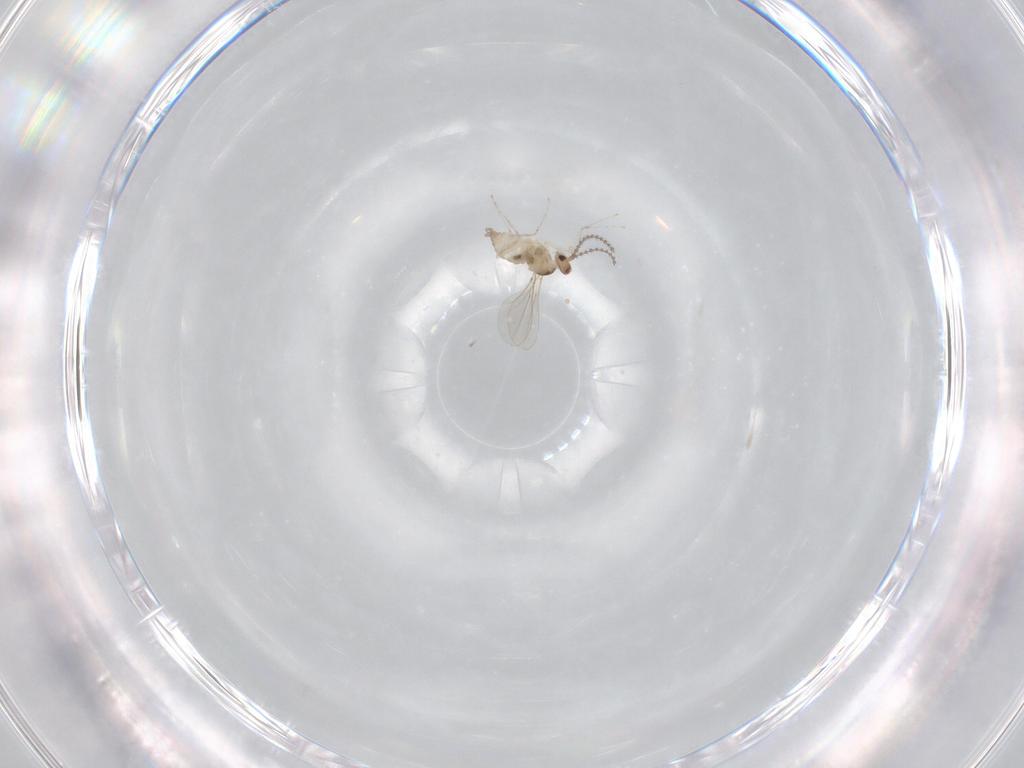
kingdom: Animalia
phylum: Arthropoda
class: Insecta
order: Diptera
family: Cecidomyiidae
